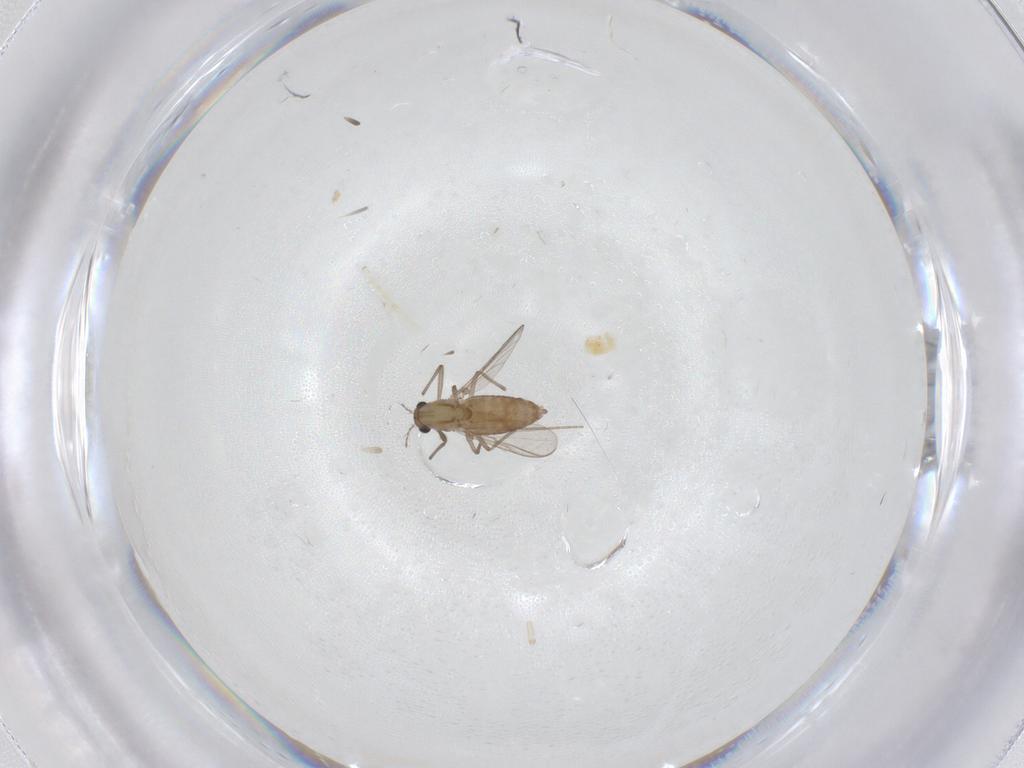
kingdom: Animalia
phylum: Arthropoda
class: Insecta
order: Diptera
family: Chironomidae
